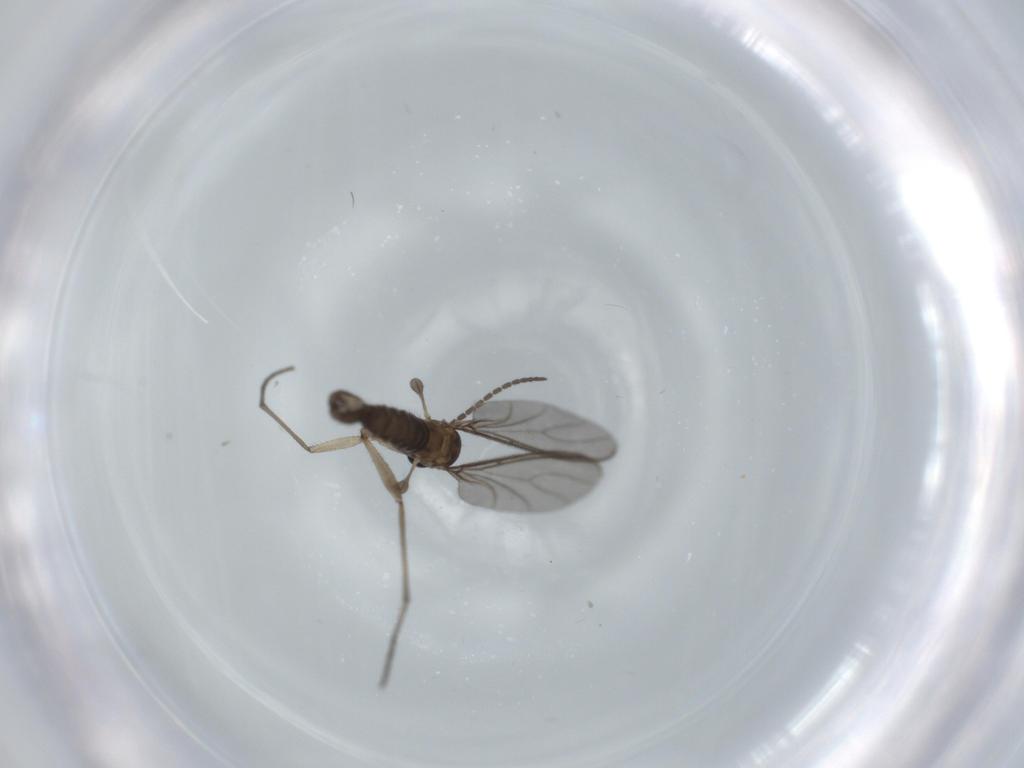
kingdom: Animalia
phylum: Arthropoda
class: Insecta
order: Diptera
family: Sciaridae
